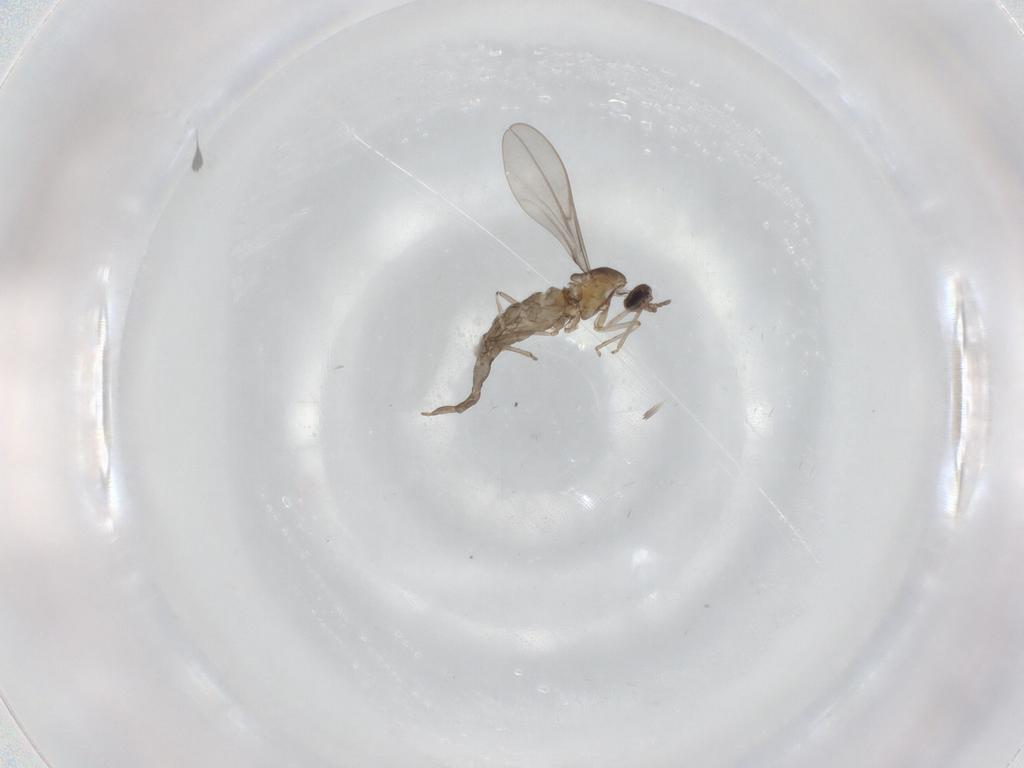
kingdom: Animalia
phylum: Arthropoda
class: Insecta
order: Diptera
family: Cecidomyiidae
